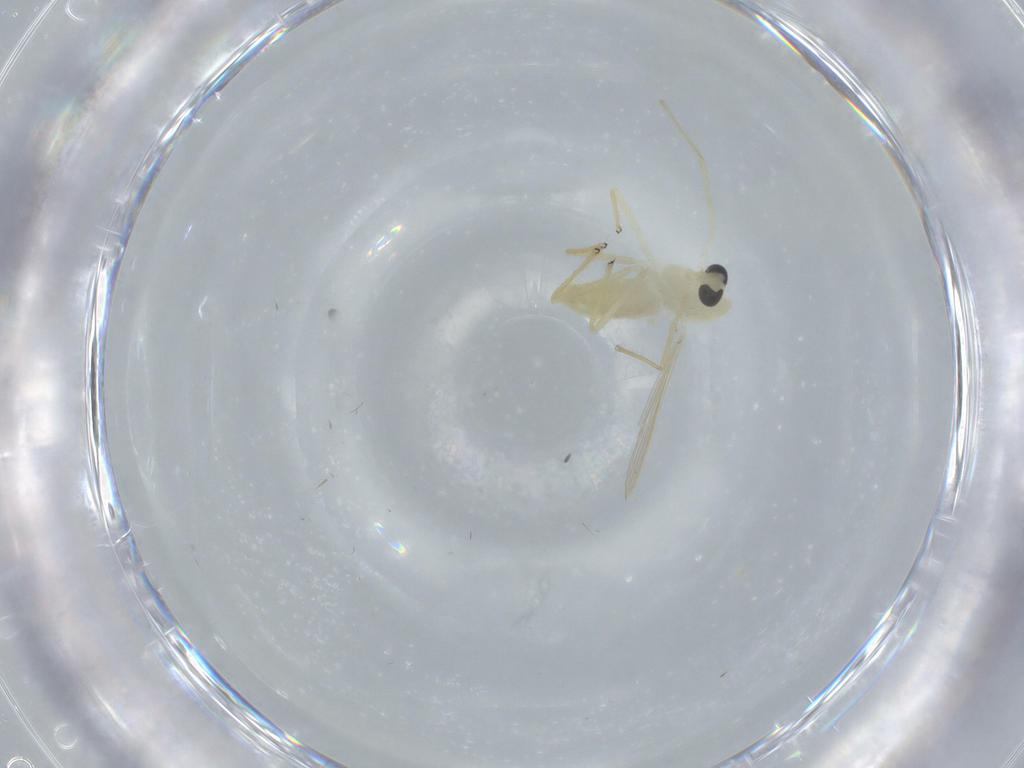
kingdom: Animalia
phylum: Arthropoda
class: Insecta
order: Diptera
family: Chironomidae
